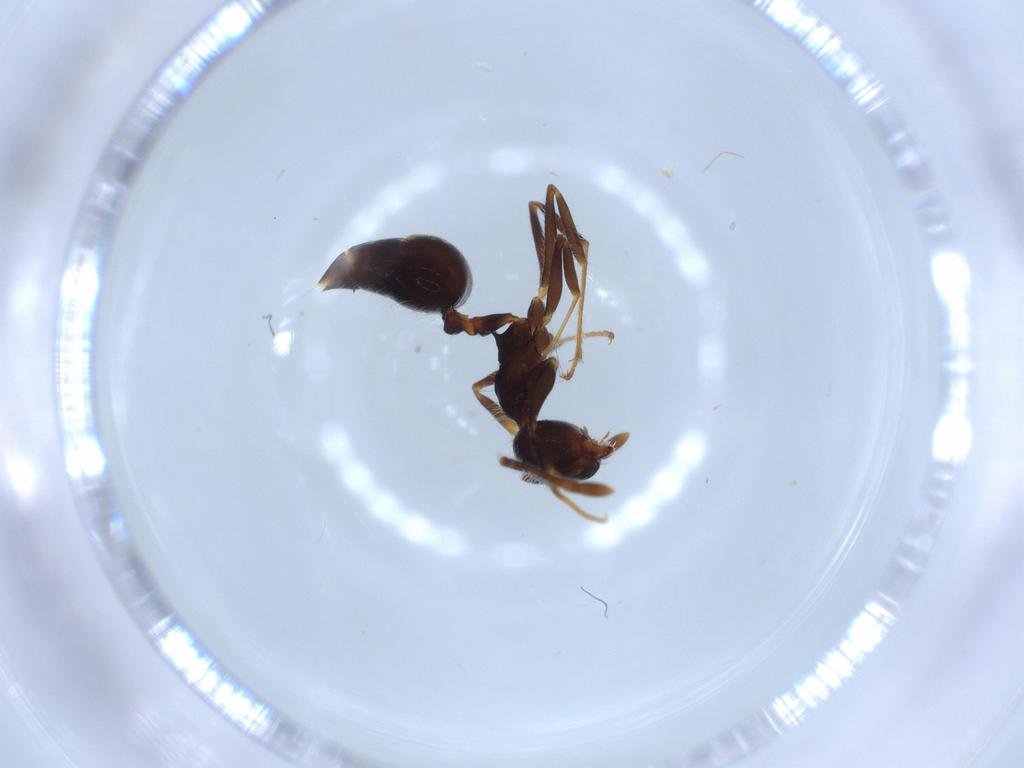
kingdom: Animalia
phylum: Arthropoda
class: Insecta
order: Hymenoptera
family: Formicidae
